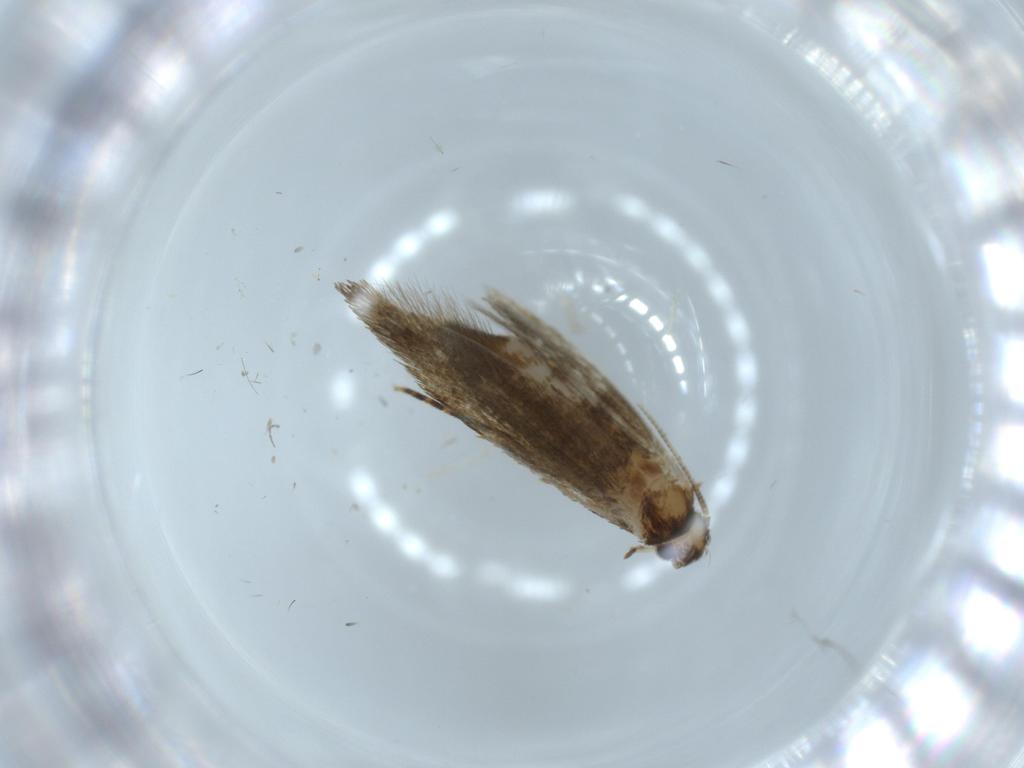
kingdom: Animalia
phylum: Arthropoda
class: Insecta
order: Lepidoptera
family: Tineidae
